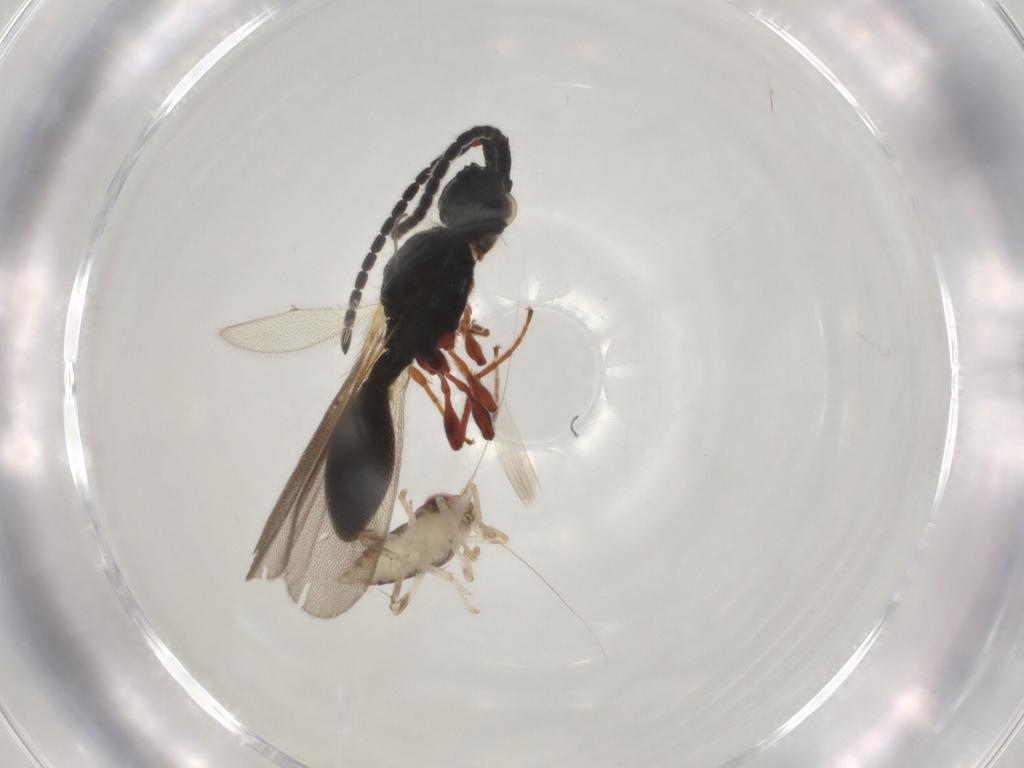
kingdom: Animalia
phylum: Arthropoda
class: Insecta
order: Hemiptera
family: Cicadellidae
